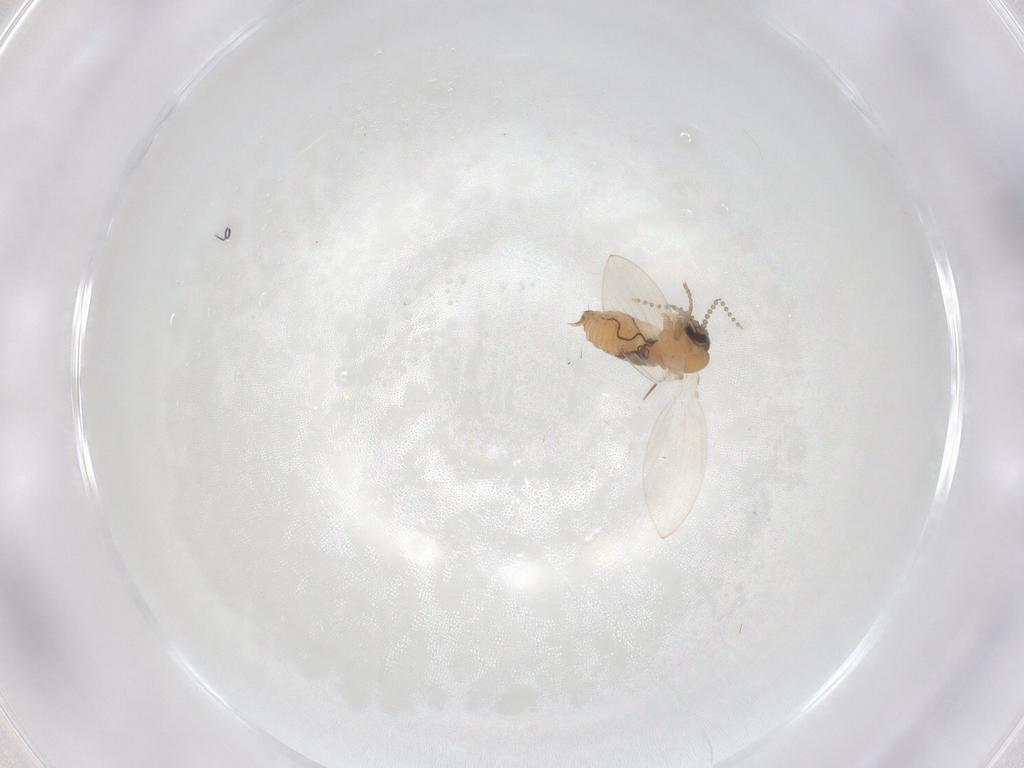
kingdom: Animalia
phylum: Arthropoda
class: Insecta
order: Diptera
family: Psychodidae
